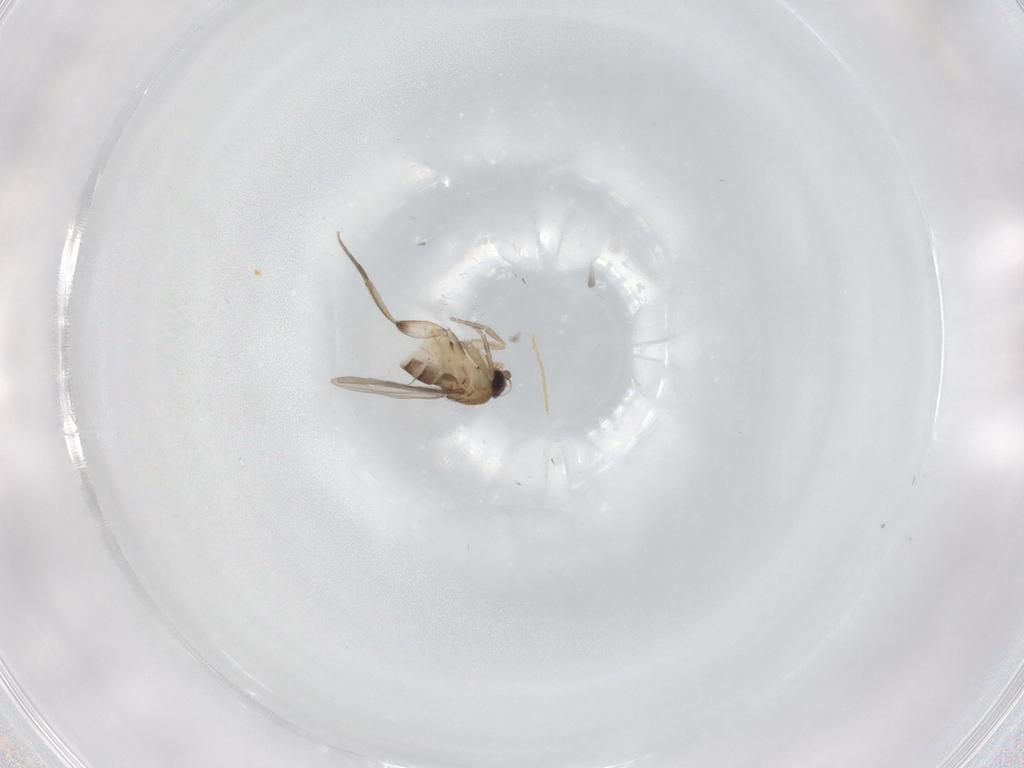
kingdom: Animalia
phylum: Arthropoda
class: Insecta
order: Diptera
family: Phoridae
